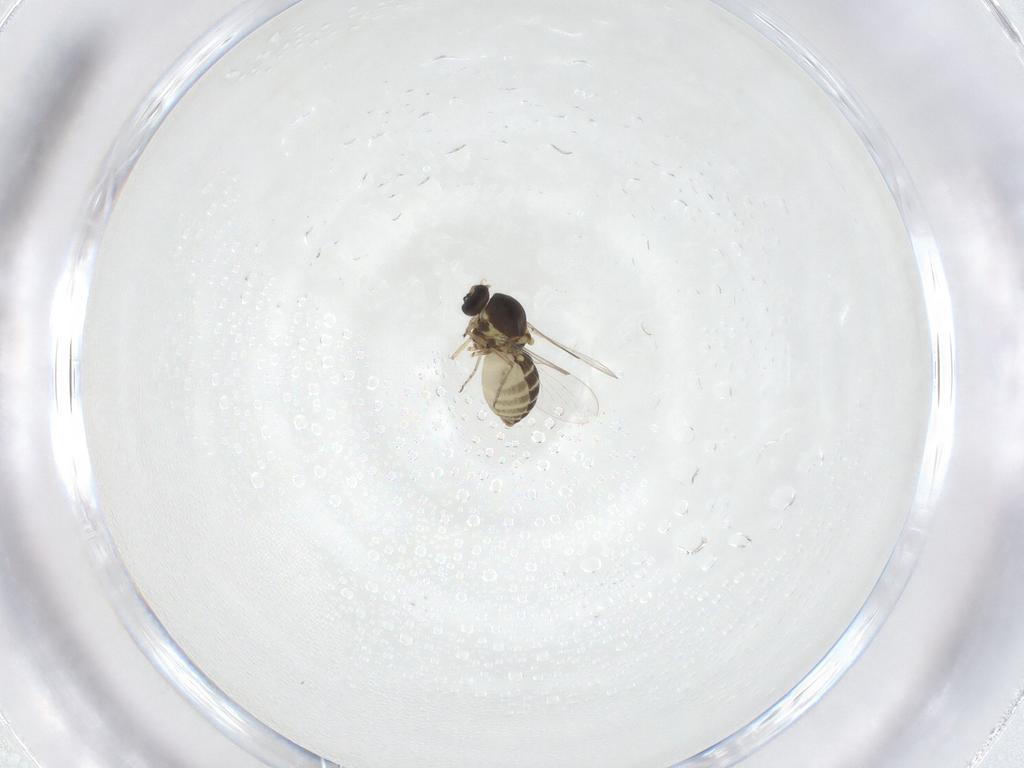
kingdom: Animalia
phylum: Arthropoda
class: Insecta
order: Diptera
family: Ceratopogonidae
